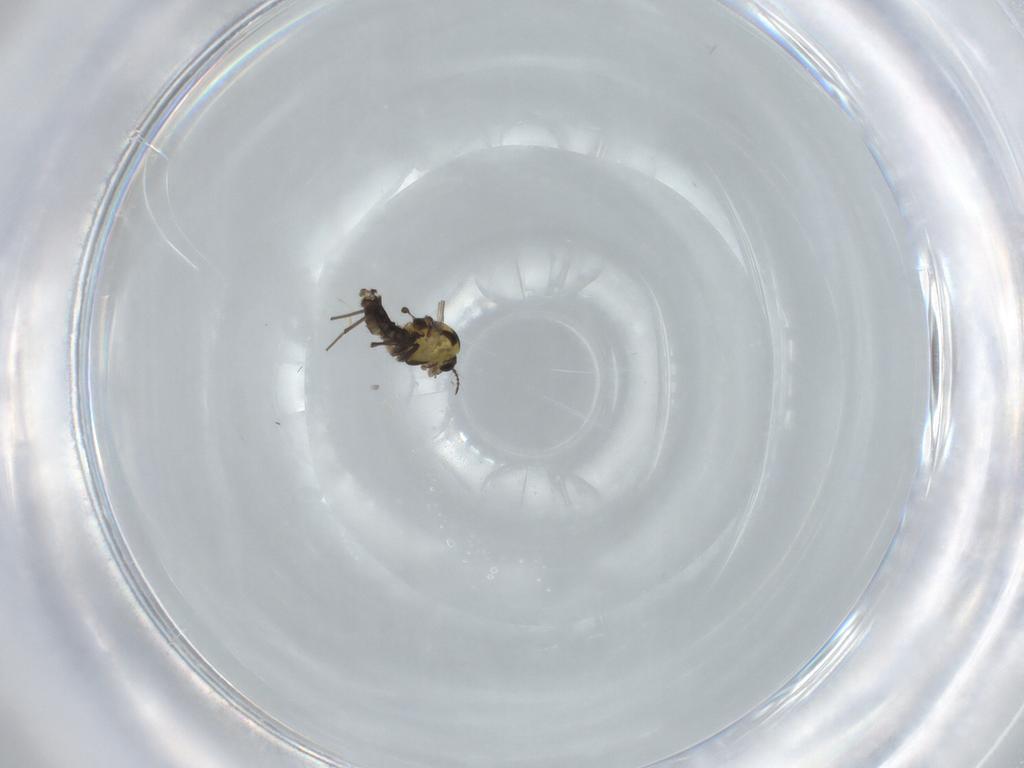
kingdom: Animalia
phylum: Arthropoda
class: Insecta
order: Diptera
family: Chironomidae
